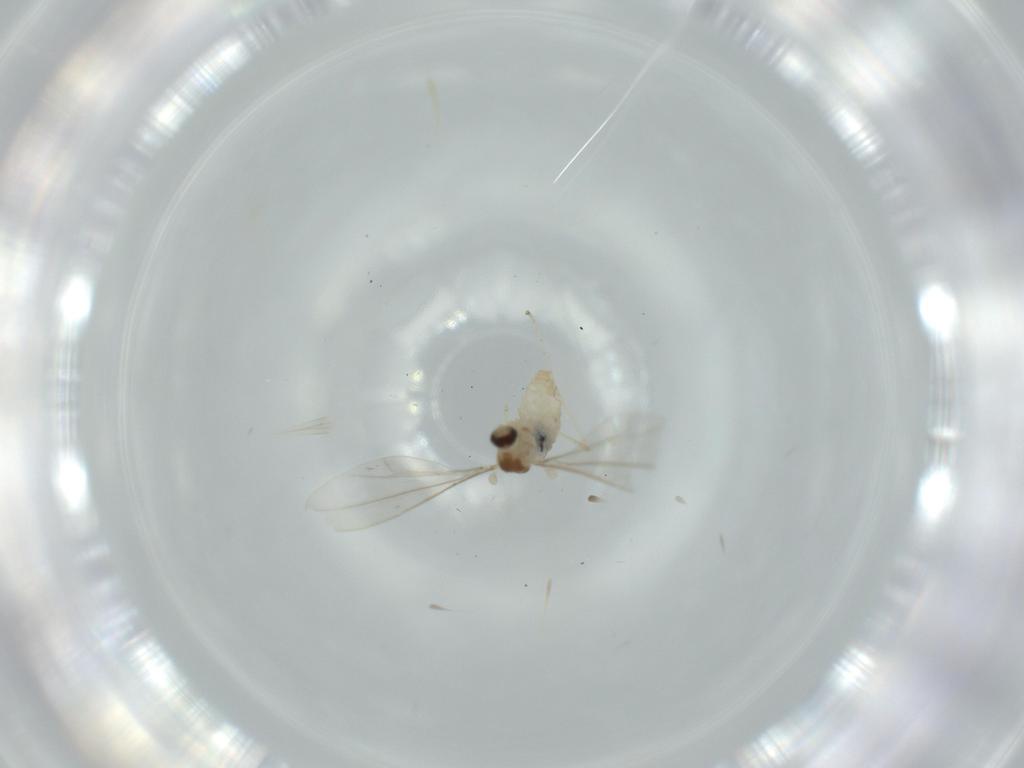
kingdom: Animalia
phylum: Arthropoda
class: Insecta
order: Diptera
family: Cecidomyiidae
